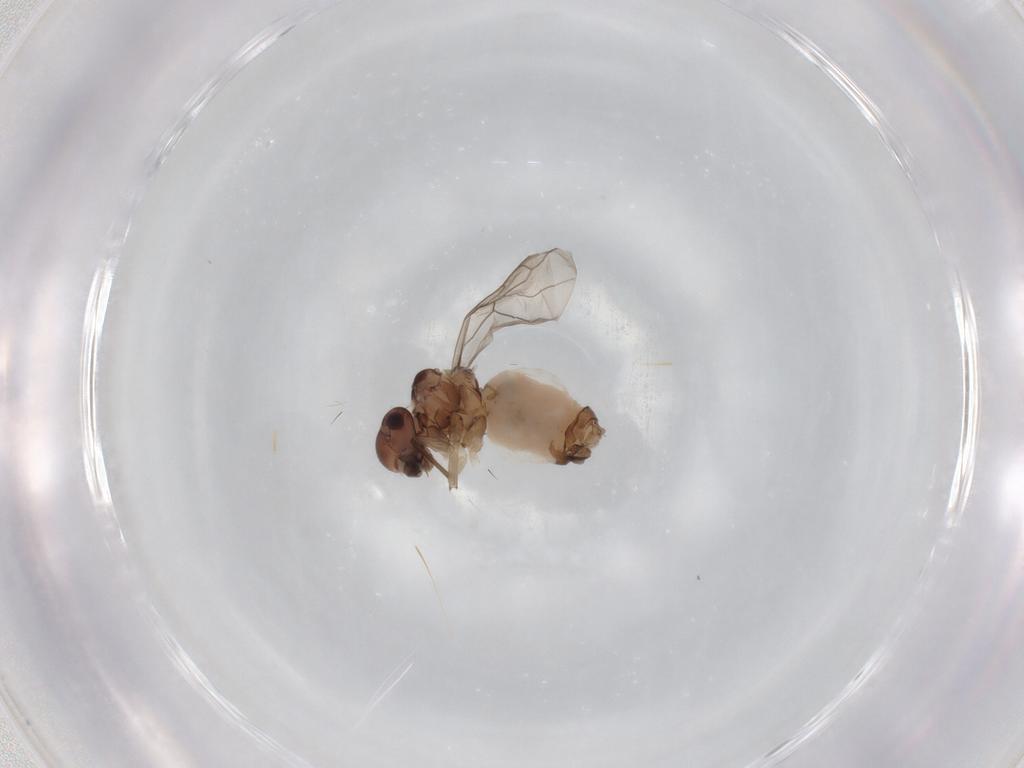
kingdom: Animalia
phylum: Arthropoda
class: Insecta
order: Psocodea
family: Peripsocidae
